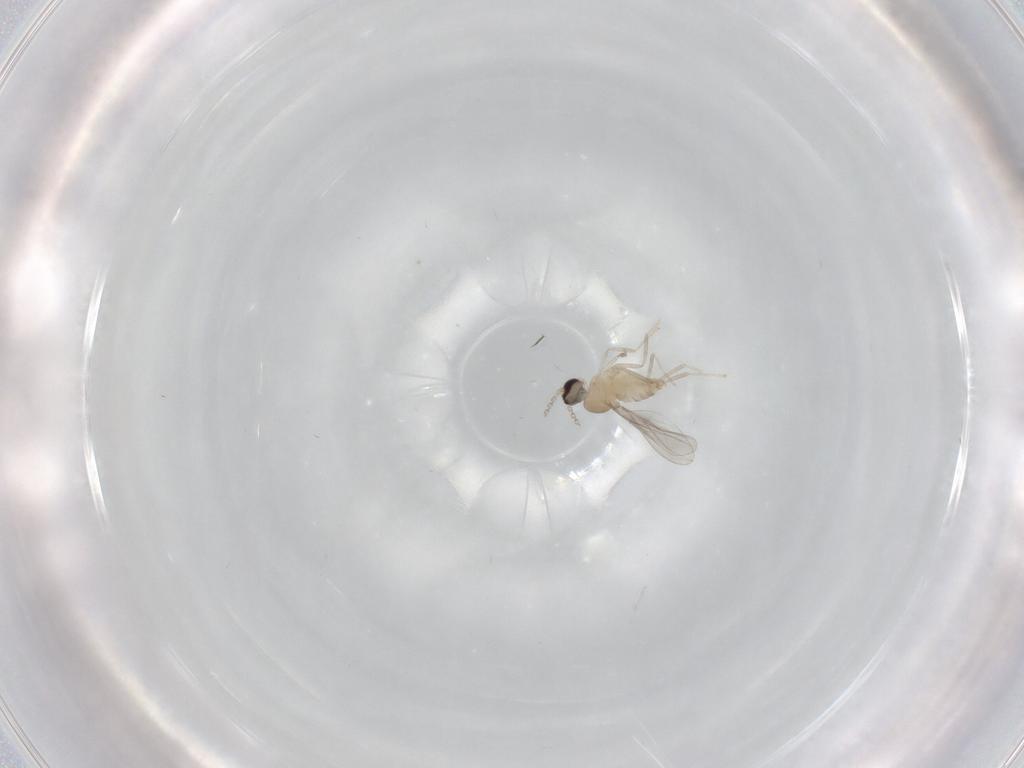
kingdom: Animalia
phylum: Arthropoda
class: Insecta
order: Diptera
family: Cecidomyiidae
